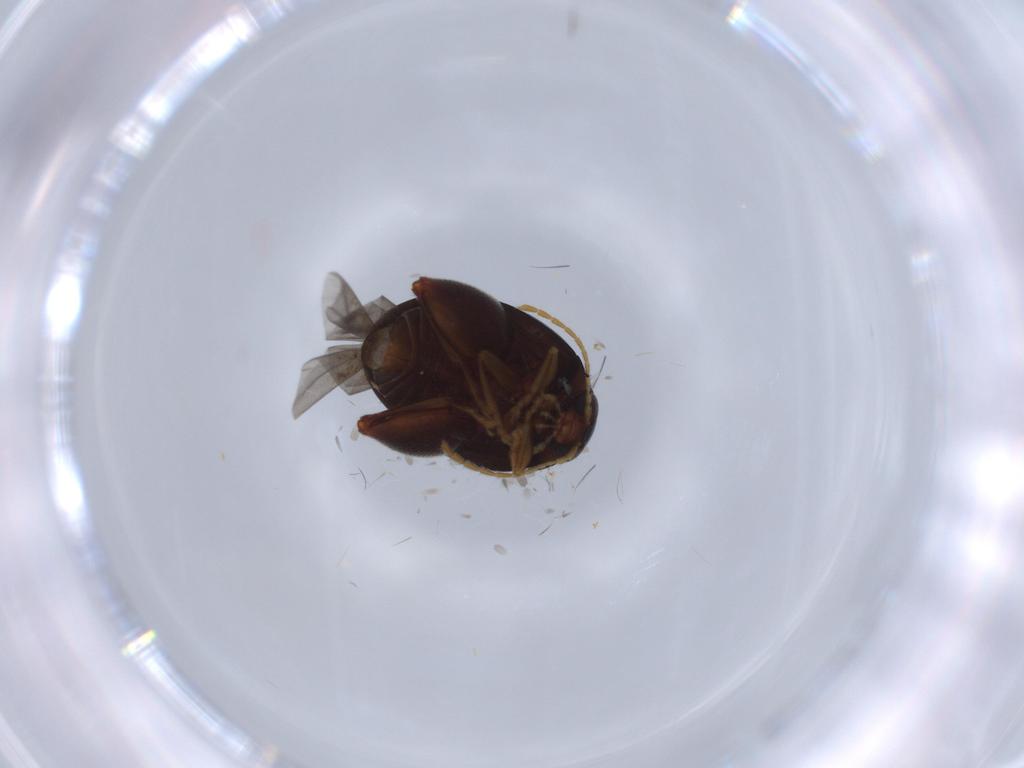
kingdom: Animalia
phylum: Arthropoda
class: Insecta
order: Coleoptera
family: Chrysomelidae
